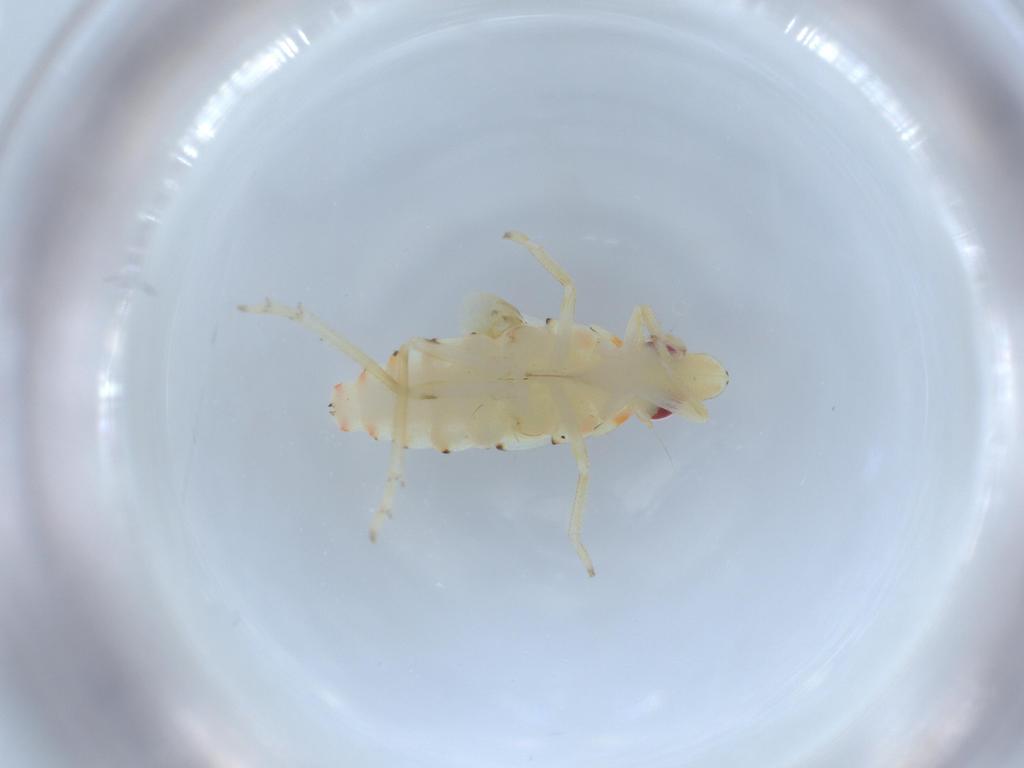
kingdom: Animalia
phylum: Arthropoda
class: Insecta
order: Hemiptera
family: Tropiduchidae
